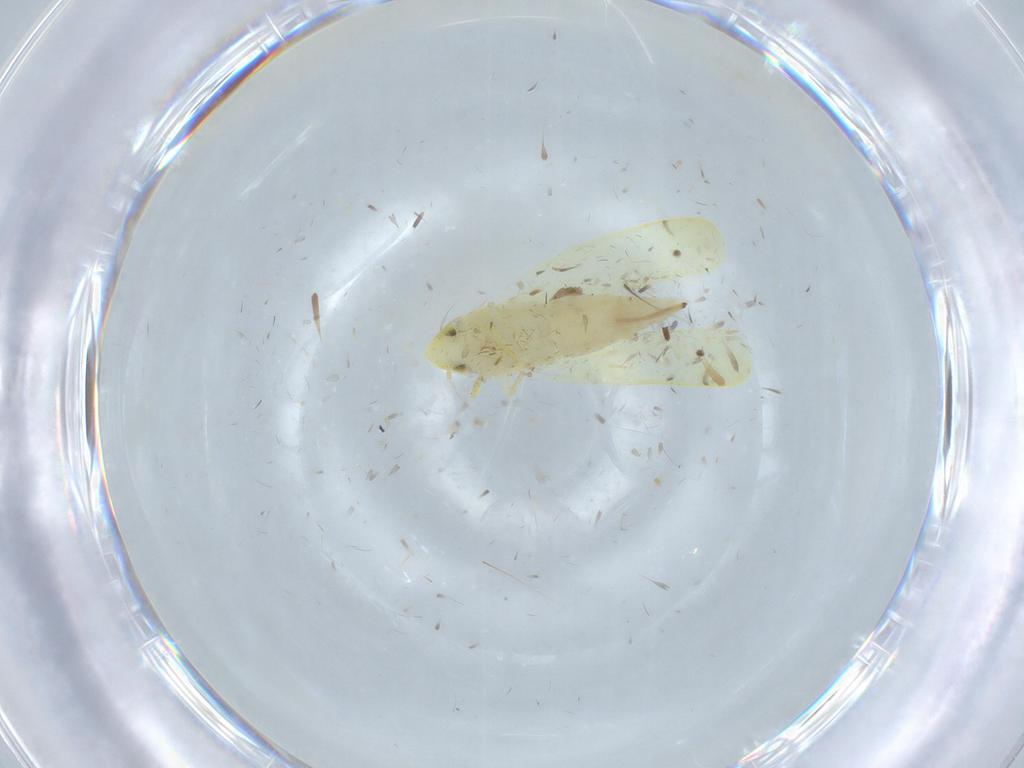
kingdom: Animalia
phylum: Arthropoda
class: Insecta
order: Hemiptera
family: Cicadellidae
